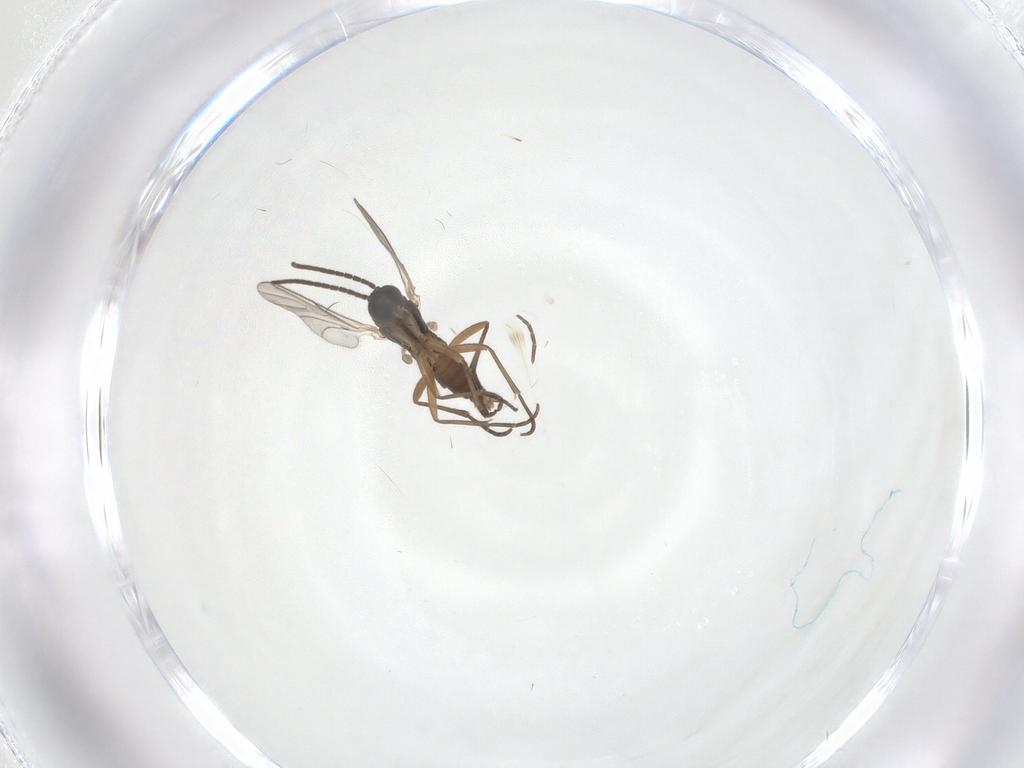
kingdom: Animalia
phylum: Arthropoda
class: Insecta
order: Diptera
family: Sciaridae
